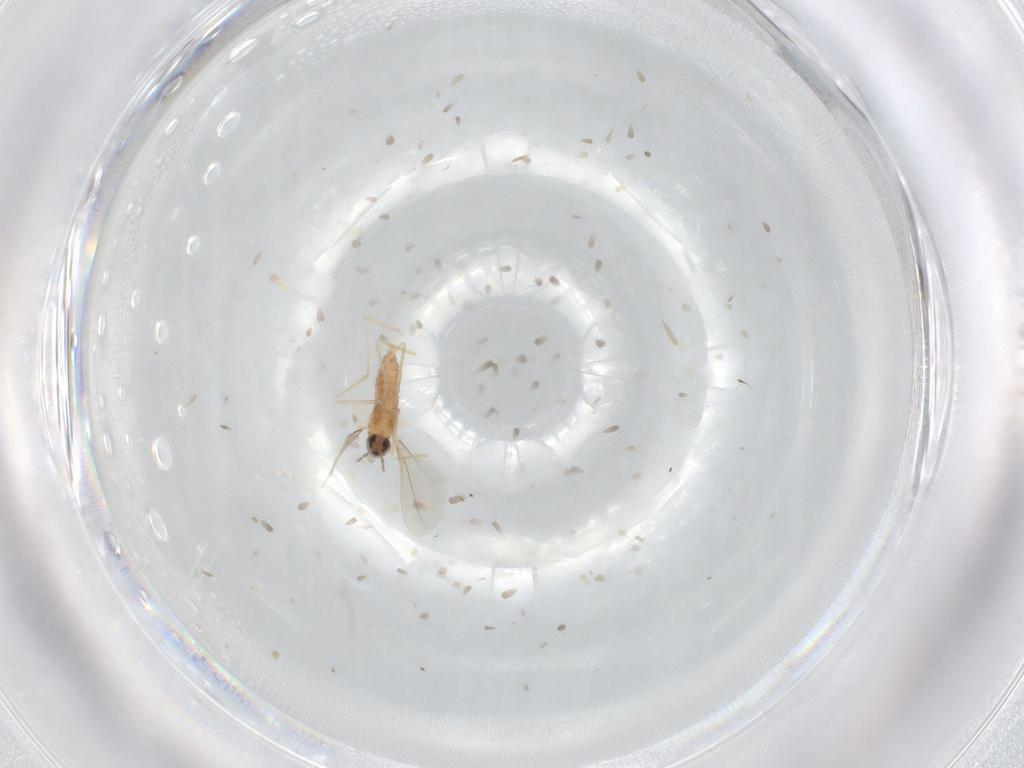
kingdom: Animalia
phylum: Arthropoda
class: Insecta
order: Diptera
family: Cecidomyiidae
